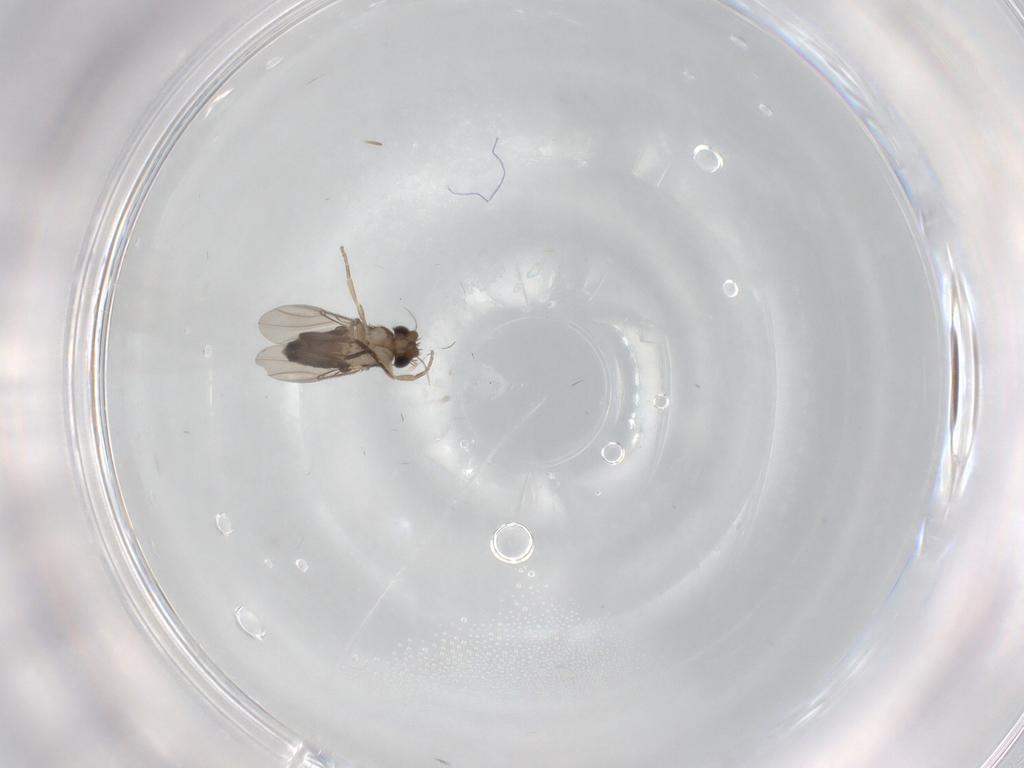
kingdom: Animalia
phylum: Arthropoda
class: Insecta
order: Diptera
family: Phoridae
